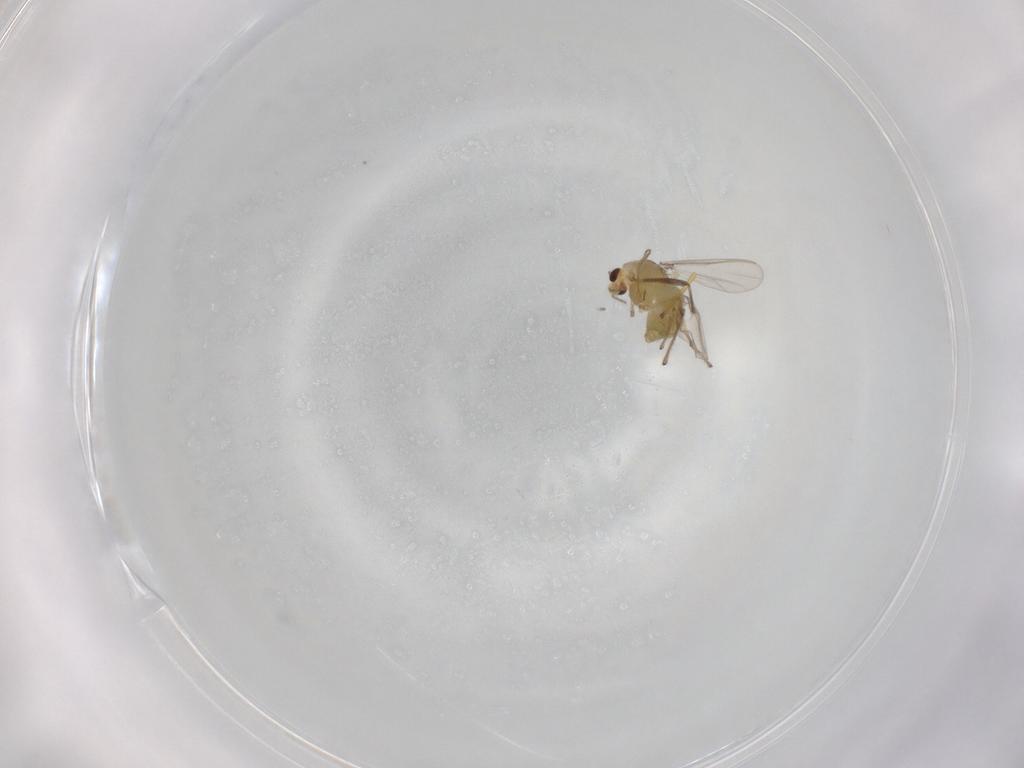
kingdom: Animalia
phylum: Arthropoda
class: Insecta
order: Diptera
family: Chironomidae
